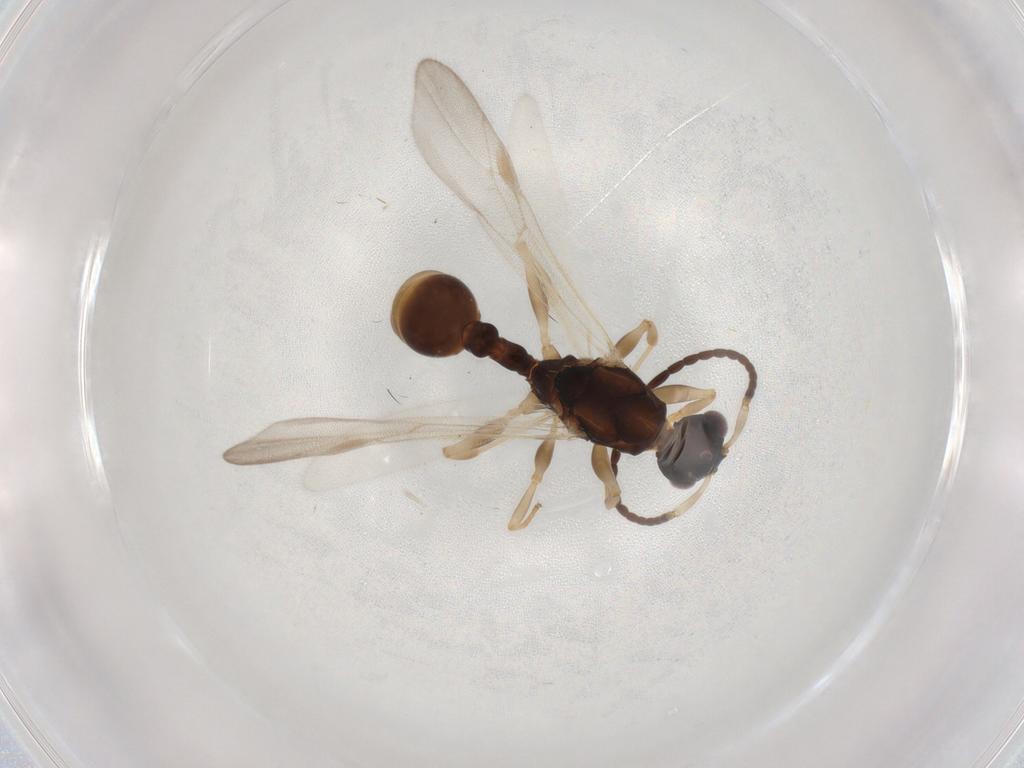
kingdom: Animalia
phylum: Arthropoda
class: Insecta
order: Hymenoptera
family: Formicidae
